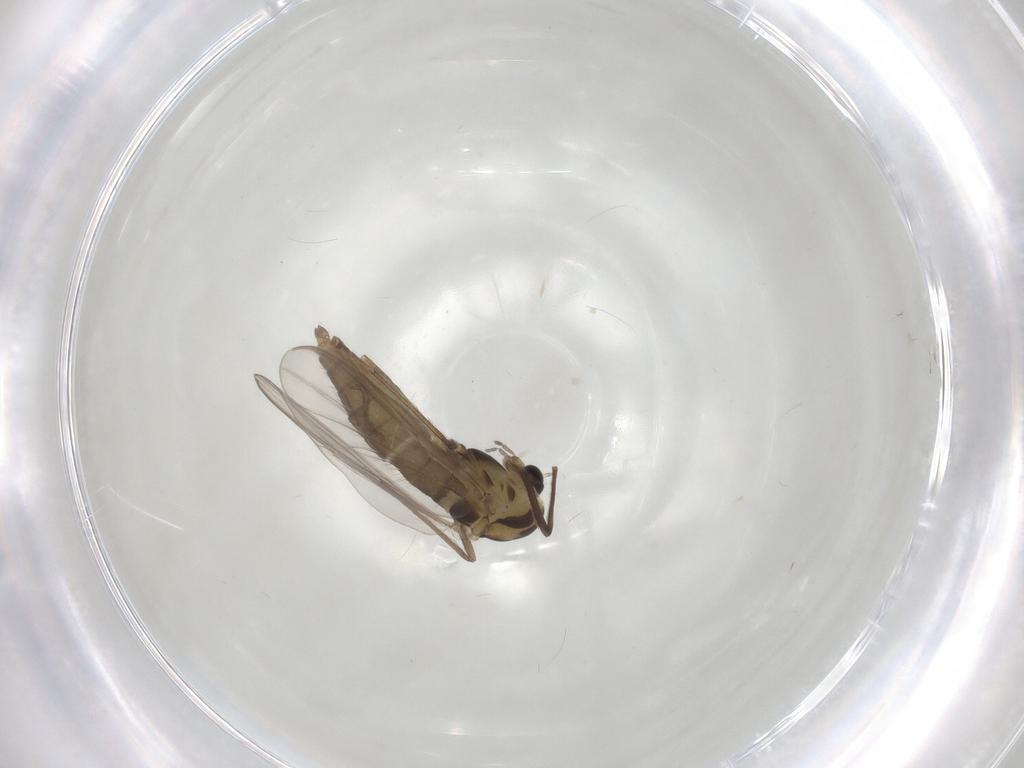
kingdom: Animalia
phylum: Arthropoda
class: Insecta
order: Diptera
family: Chironomidae
